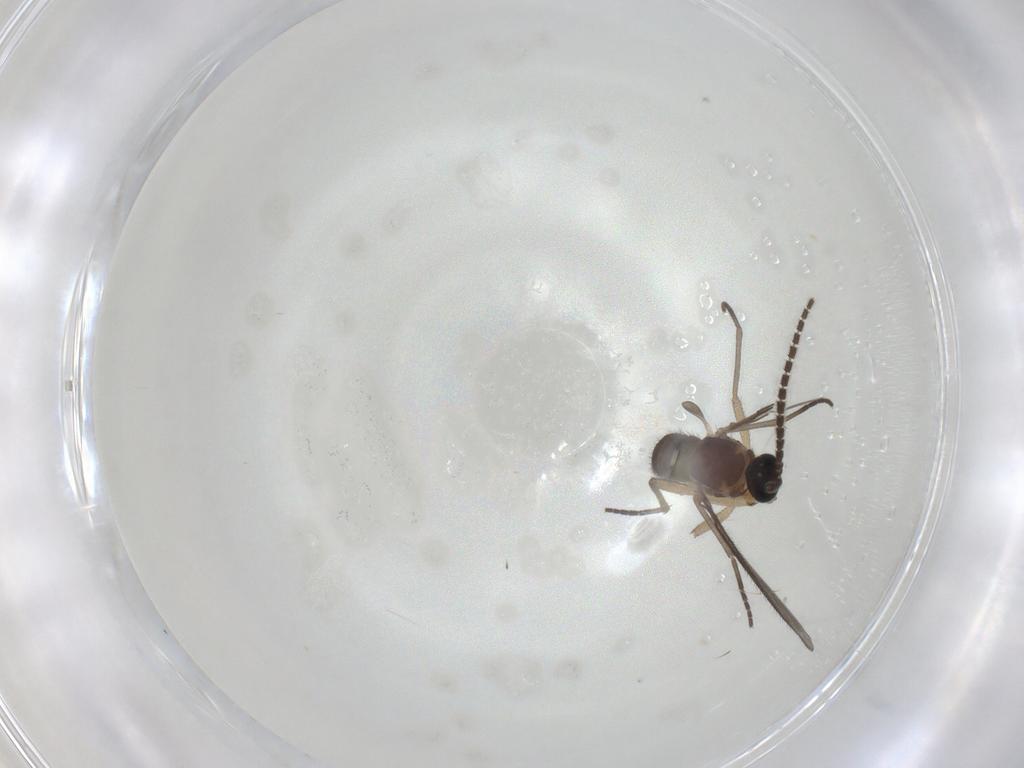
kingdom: Animalia
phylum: Arthropoda
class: Insecta
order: Diptera
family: Sciaridae
